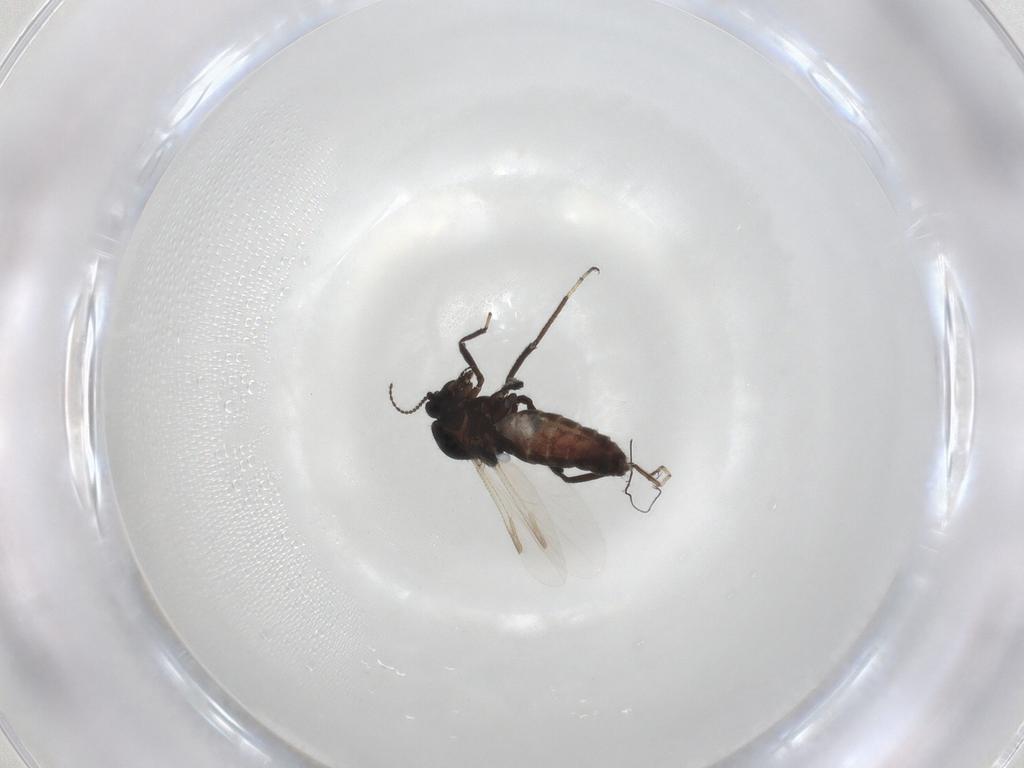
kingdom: Animalia
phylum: Arthropoda
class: Insecta
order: Diptera
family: Ceratopogonidae
